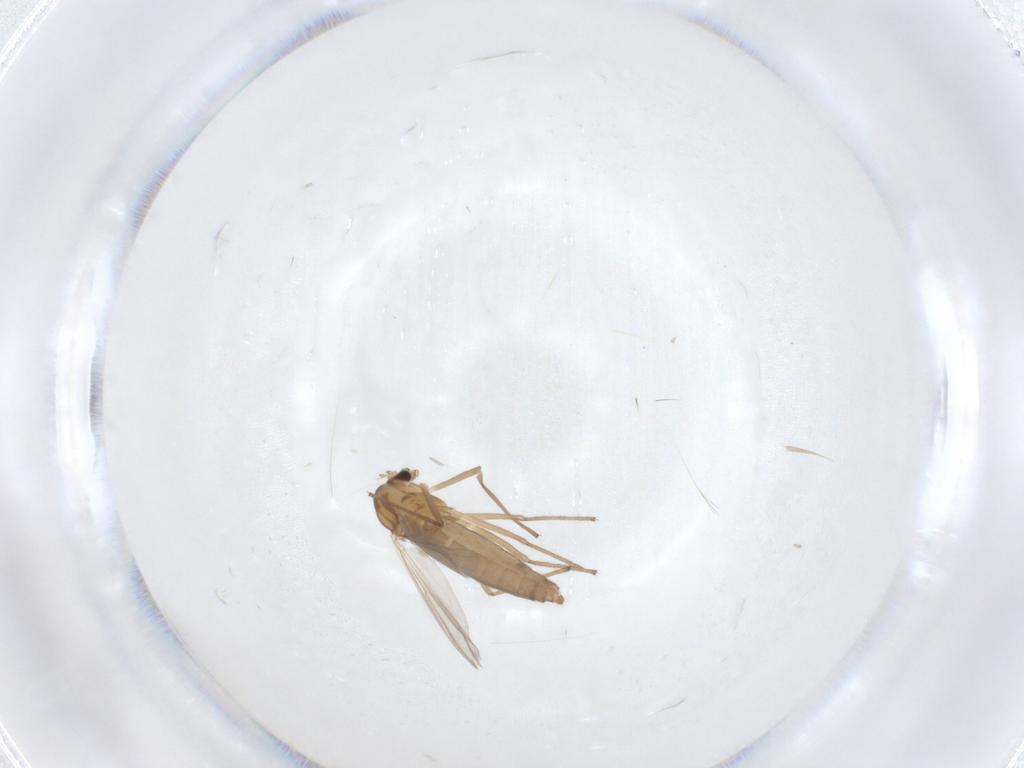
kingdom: Animalia
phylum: Arthropoda
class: Insecta
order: Diptera
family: Chironomidae
